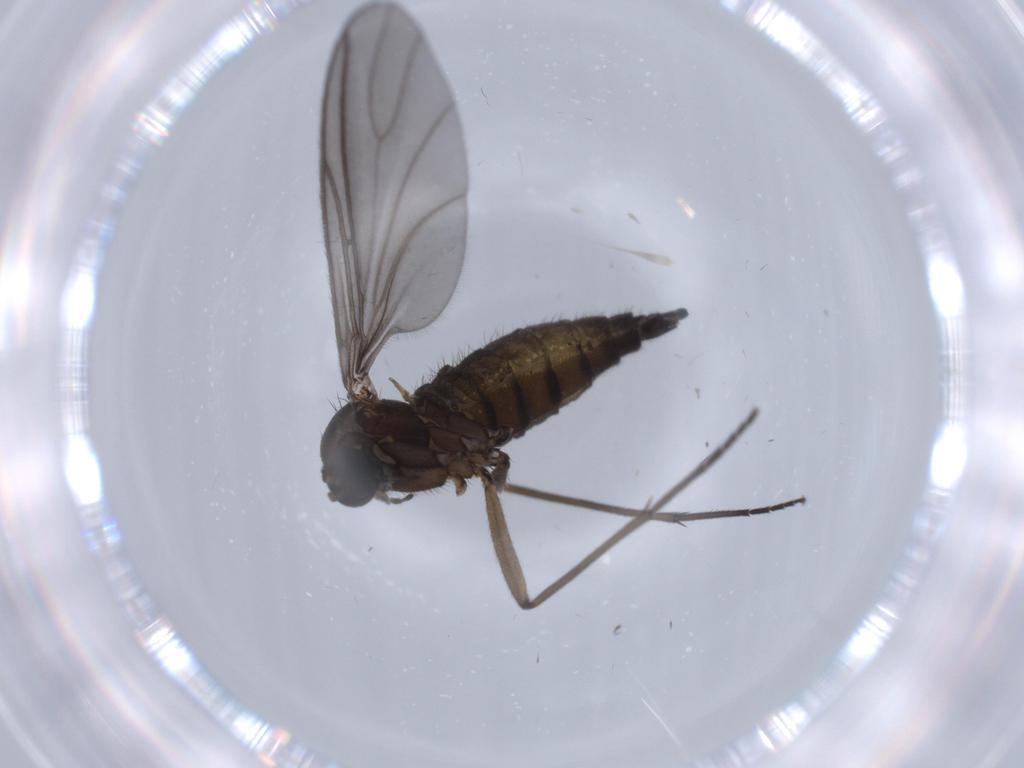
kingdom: Animalia
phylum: Arthropoda
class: Insecta
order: Diptera
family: Sciaridae
